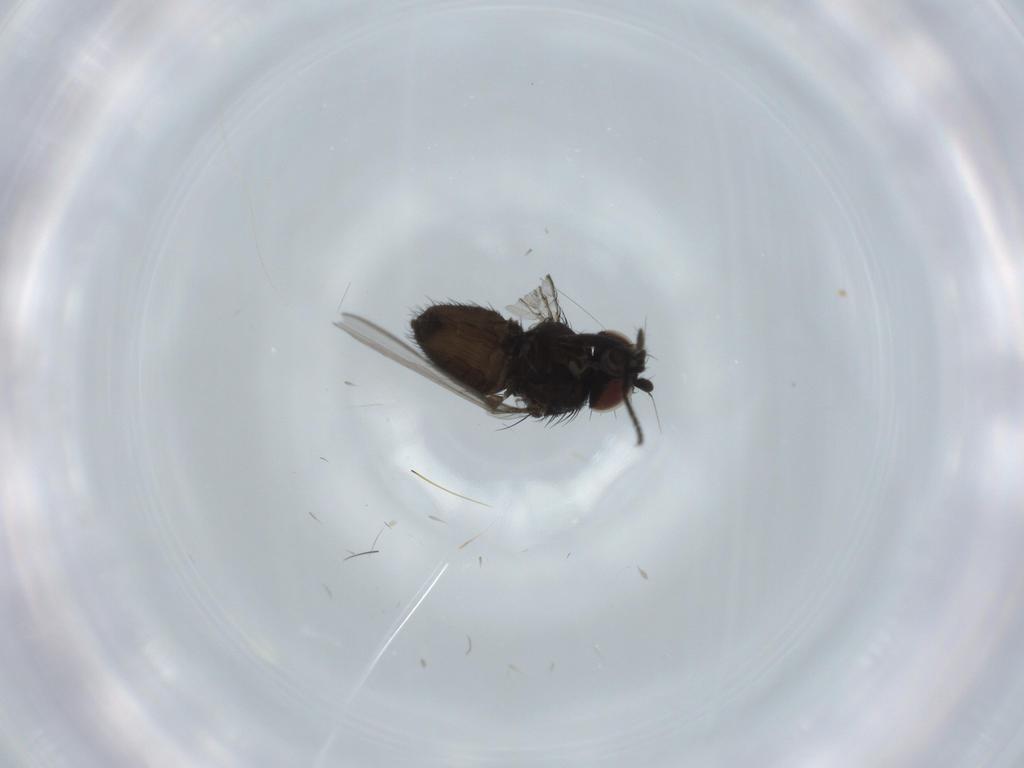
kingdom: Animalia
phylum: Arthropoda
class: Insecta
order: Diptera
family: Milichiidae
